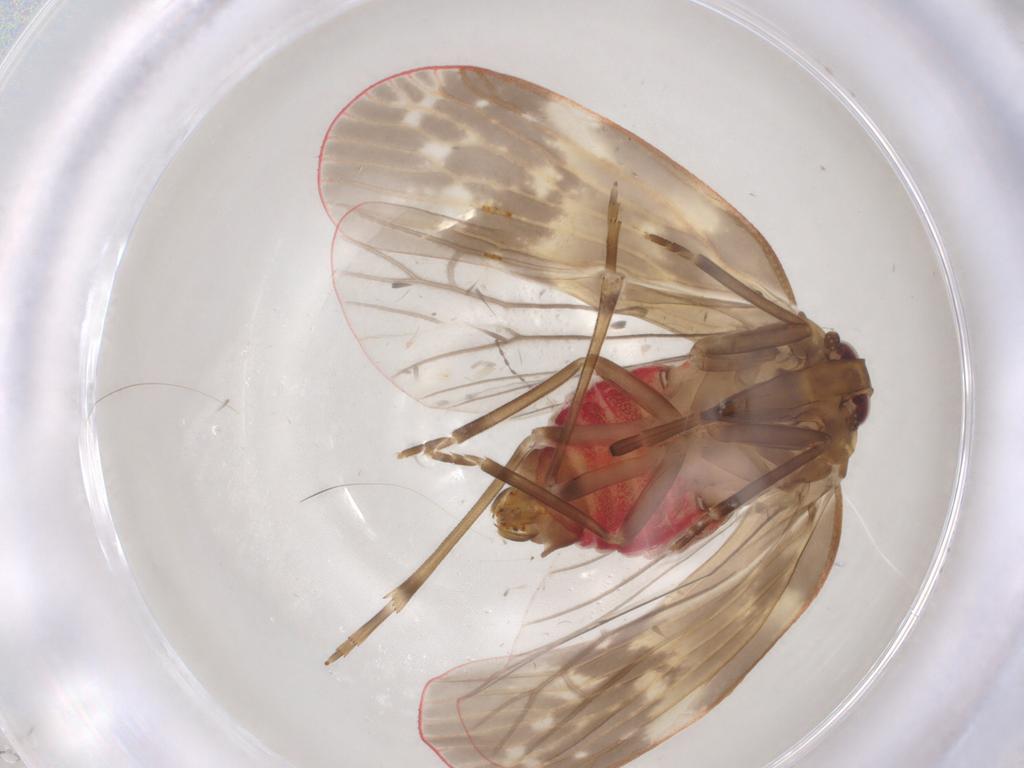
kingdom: Animalia
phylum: Arthropoda
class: Insecta
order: Hemiptera
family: Achilidae
